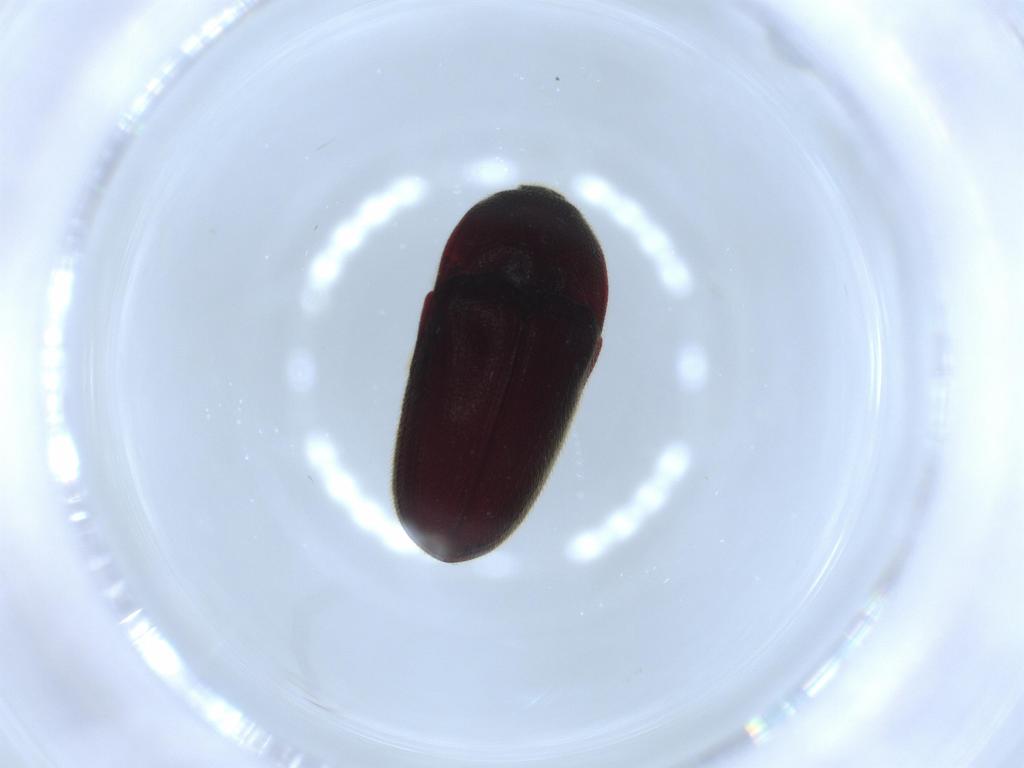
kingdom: Animalia
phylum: Arthropoda
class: Insecta
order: Coleoptera
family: Throscidae
